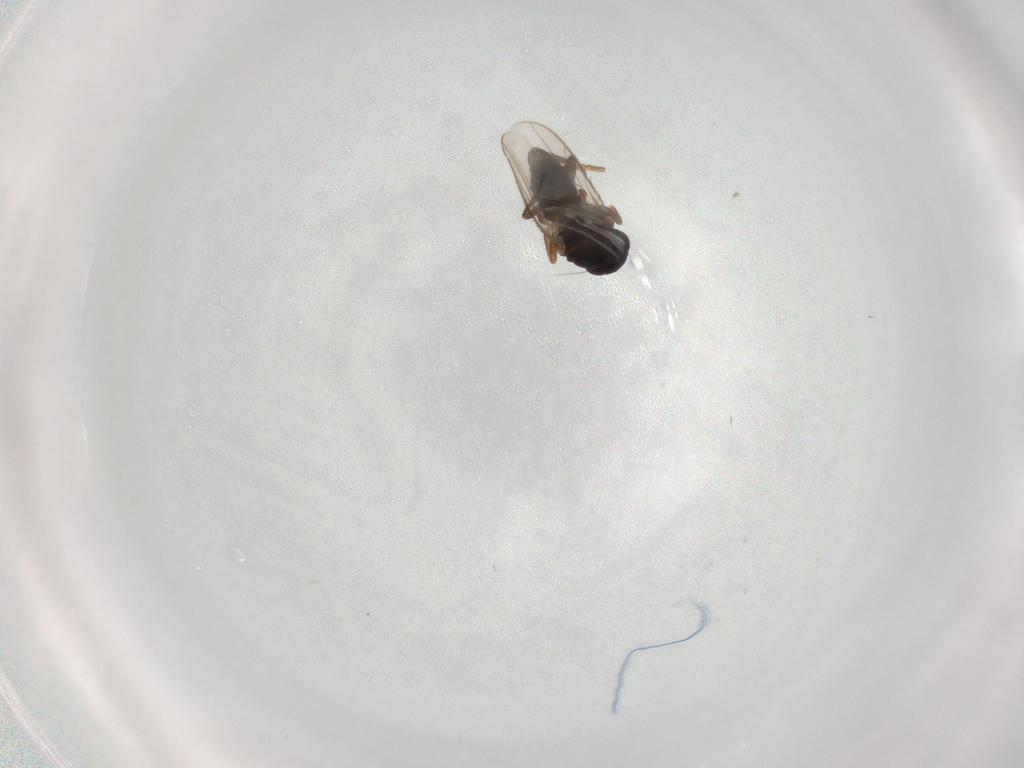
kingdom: Animalia
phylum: Arthropoda
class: Insecta
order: Diptera
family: Sphaeroceridae
